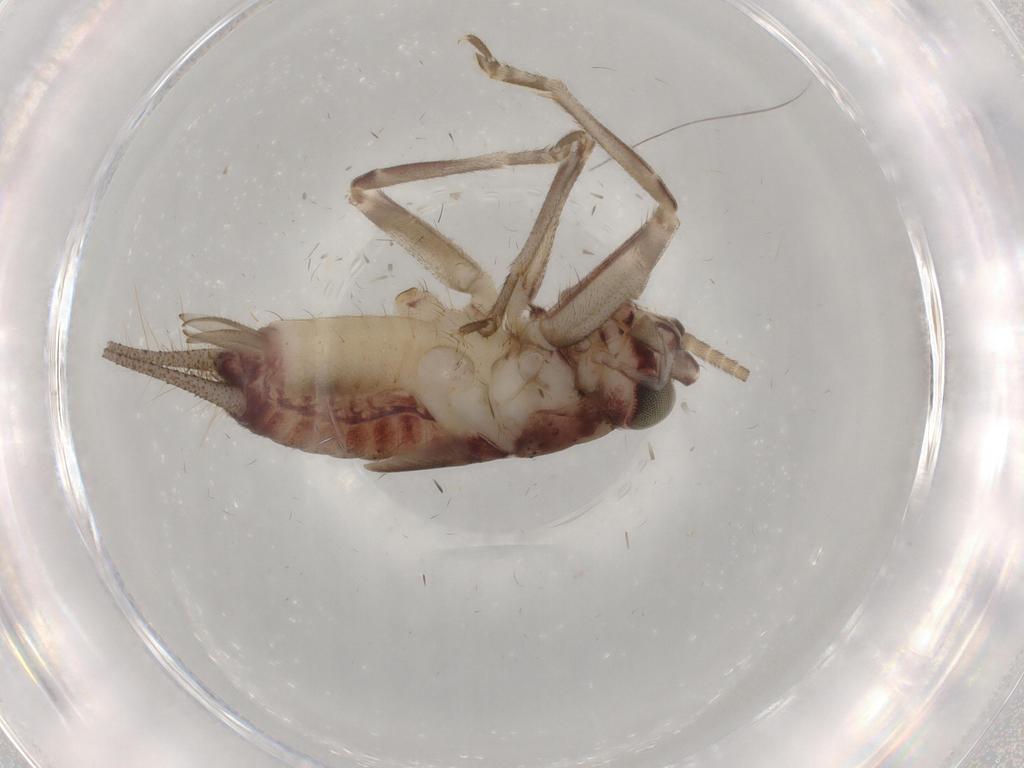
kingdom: Animalia
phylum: Arthropoda
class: Insecta
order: Orthoptera
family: Trigonidiidae
